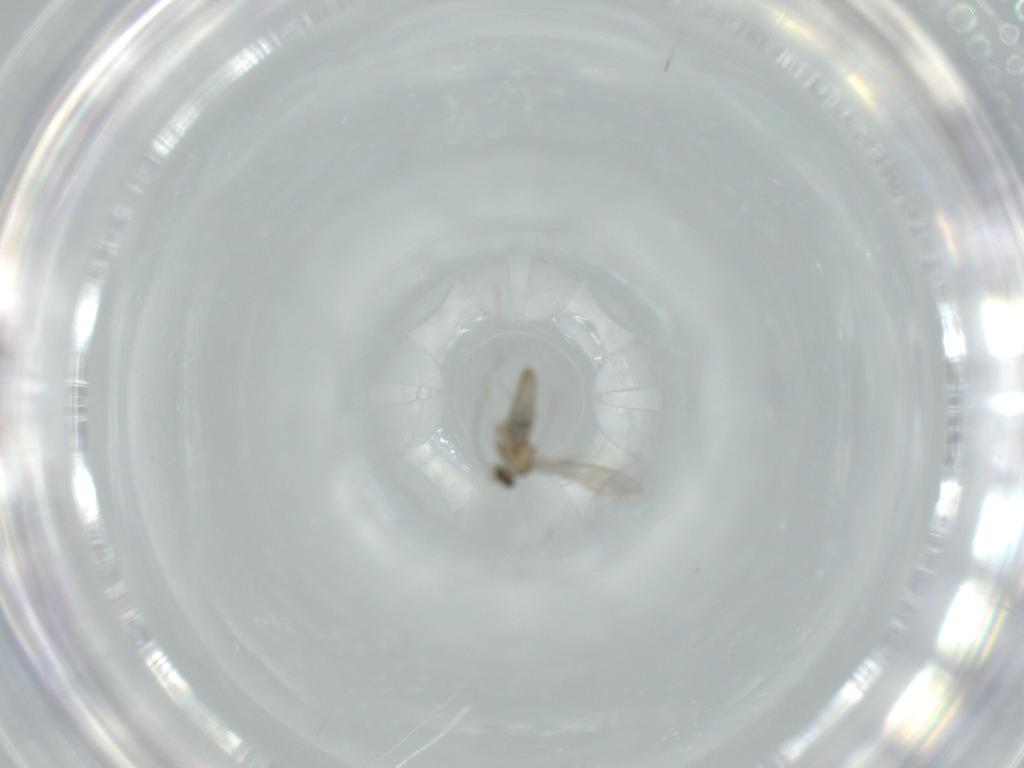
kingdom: Animalia
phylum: Arthropoda
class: Insecta
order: Diptera
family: Cecidomyiidae
